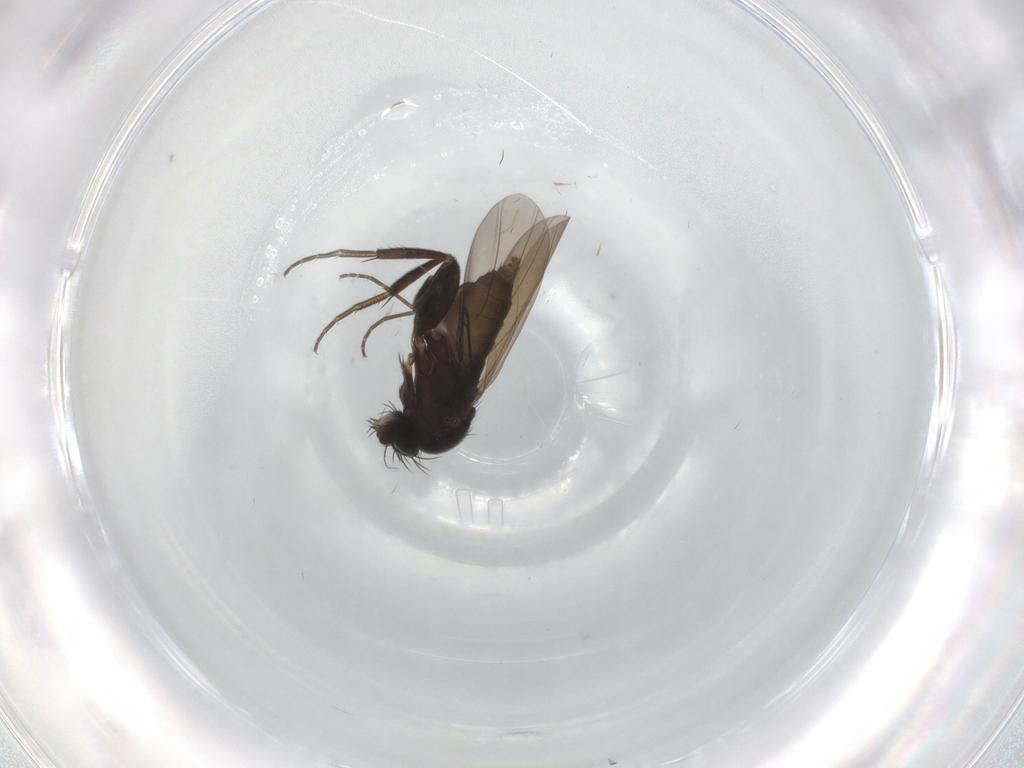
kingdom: Animalia
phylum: Arthropoda
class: Insecta
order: Diptera
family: Phoridae
